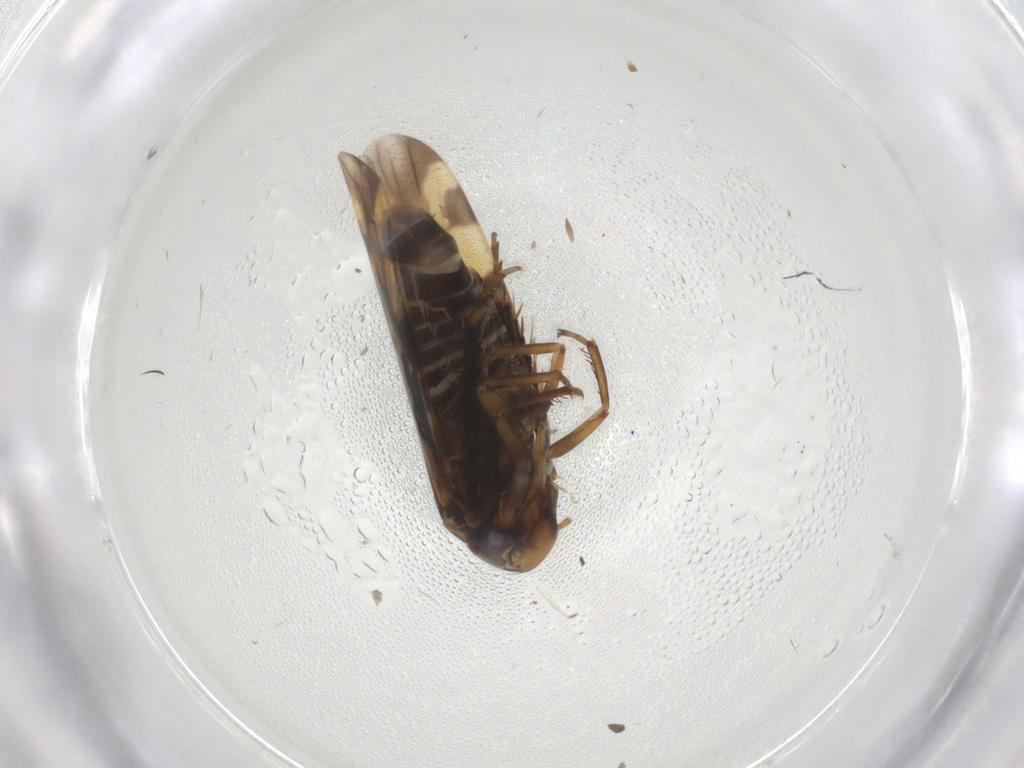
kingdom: Animalia
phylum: Arthropoda
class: Insecta
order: Hemiptera
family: Cicadellidae
